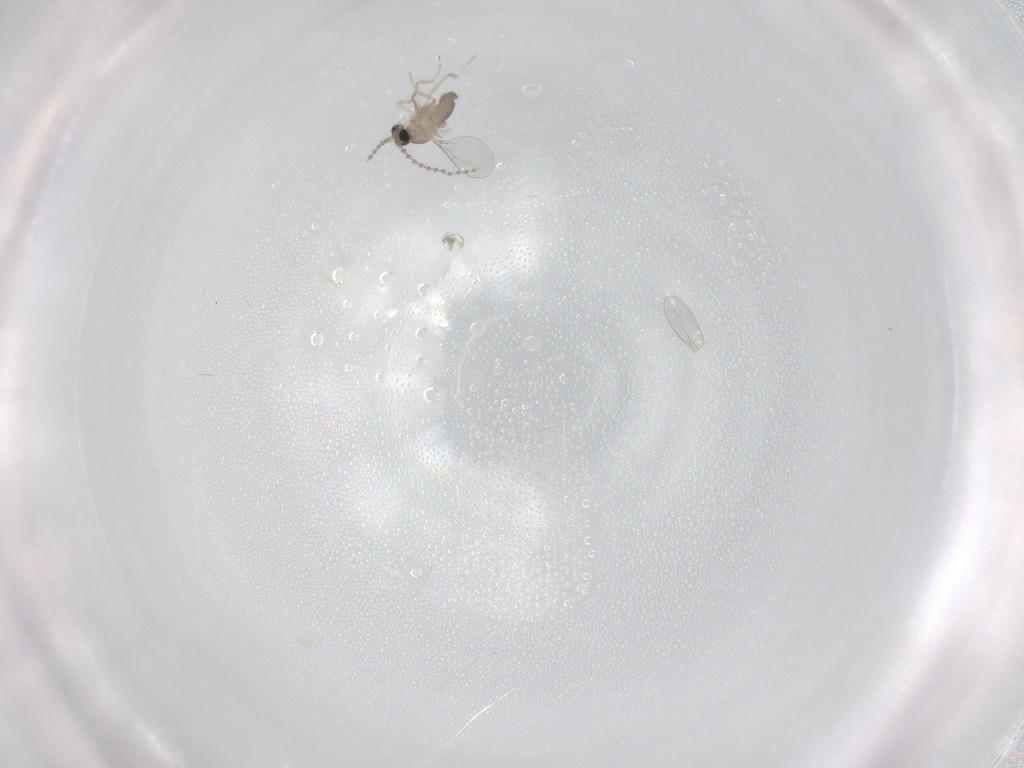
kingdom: Animalia
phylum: Arthropoda
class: Insecta
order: Diptera
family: Cecidomyiidae
